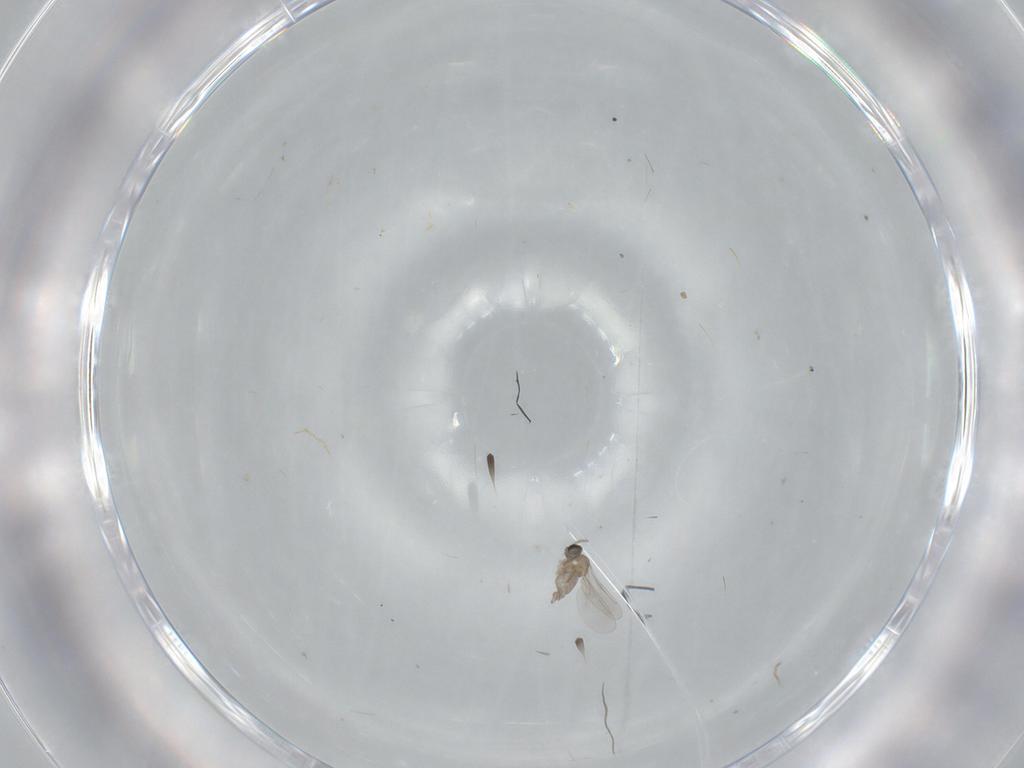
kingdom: Animalia
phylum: Arthropoda
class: Insecta
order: Diptera
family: Cecidomyiidae
